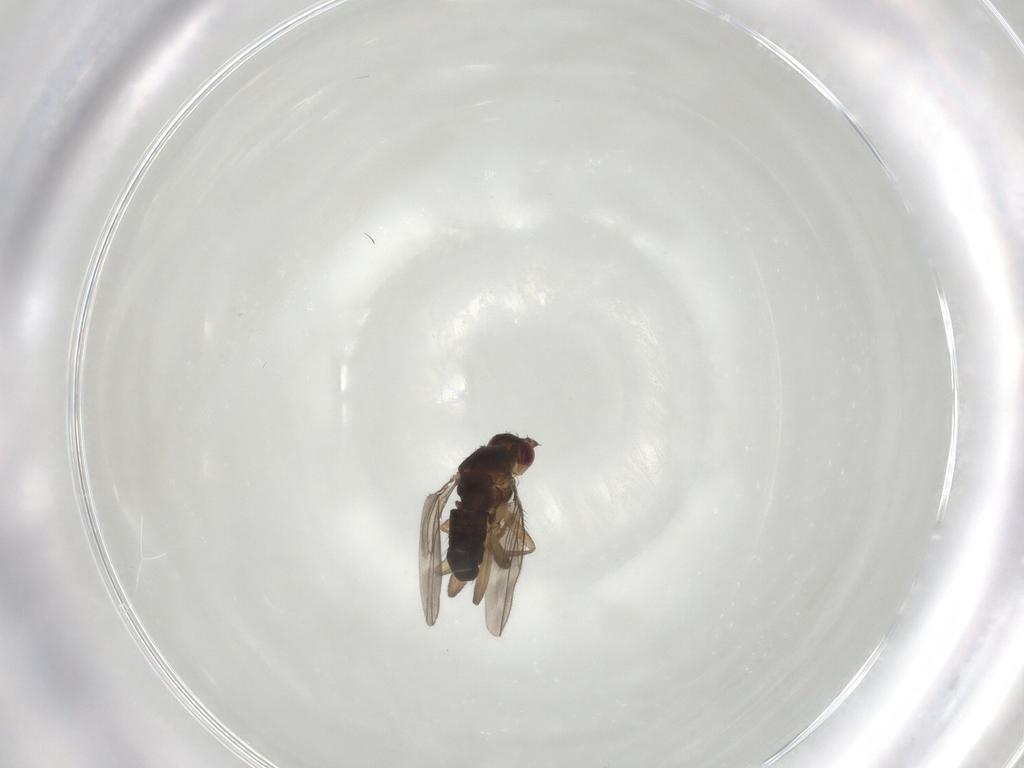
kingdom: Animalia
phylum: Arthropoda
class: Insecta
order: Diptera
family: Sphaeroceridae
